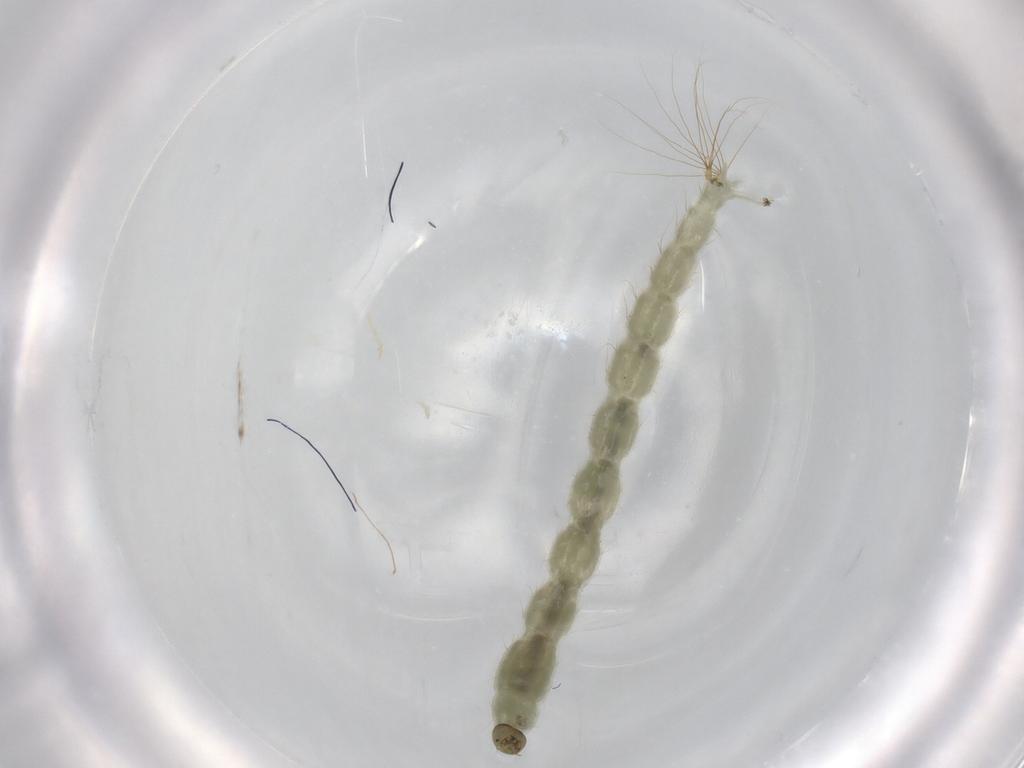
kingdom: Animalia
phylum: Arthropoda
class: Insecta
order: Diptera
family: Chironomidae
